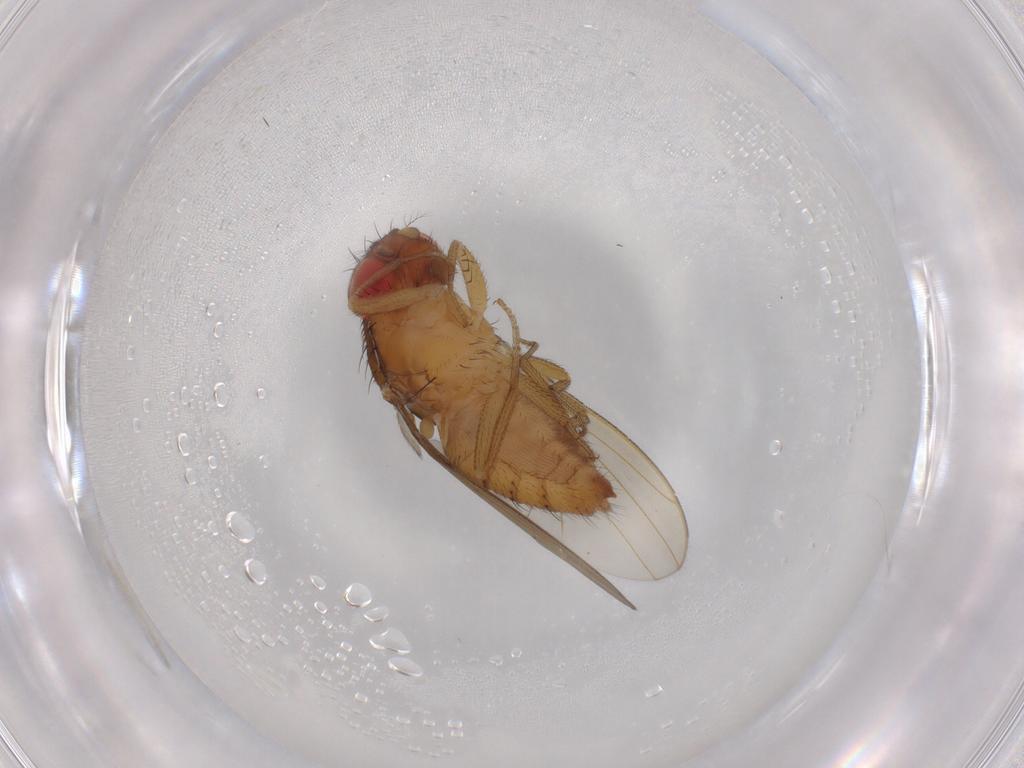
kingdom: Animalia
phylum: Arthropoda
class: Insecta
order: Diptera
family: Drosophilidae
